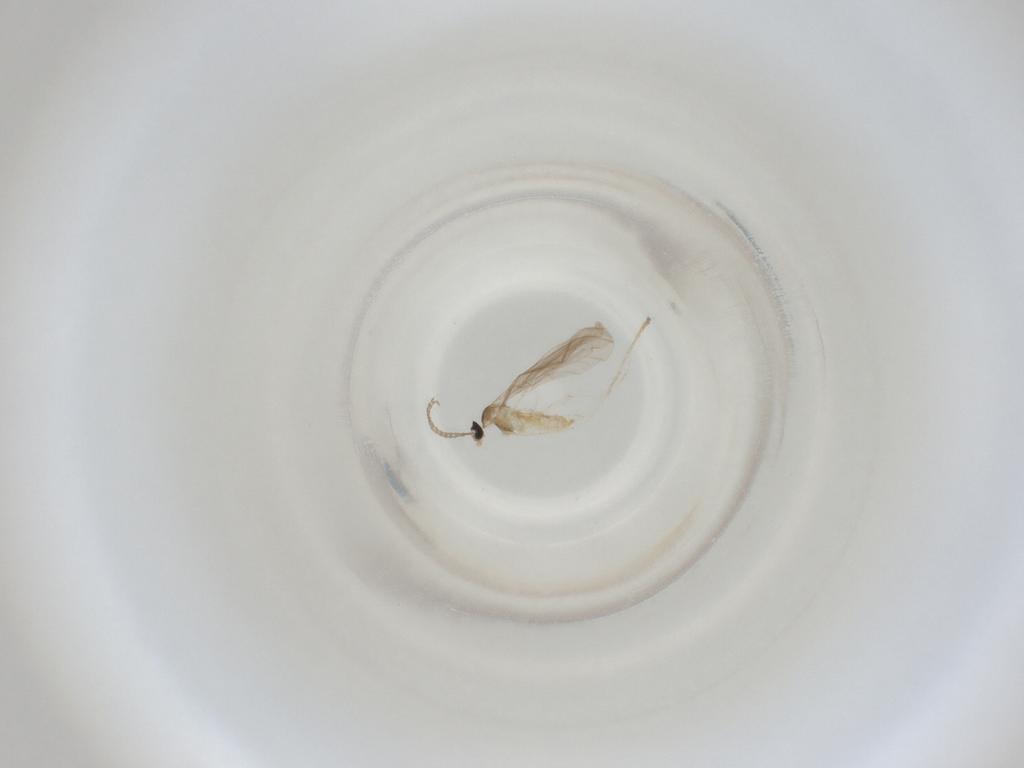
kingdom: Animalia
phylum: Arthropoda
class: Insecta
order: Diptera
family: Cecidomyiidae
